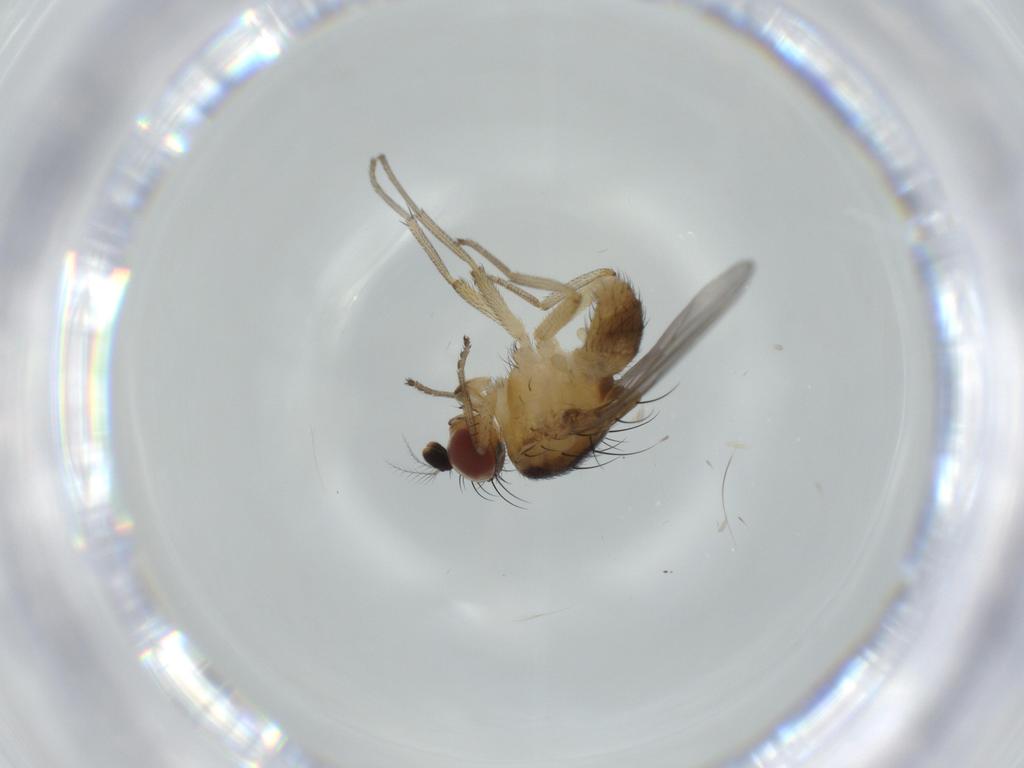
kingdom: Animalia
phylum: Arthropoda
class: Insecta
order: Diptera
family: Lauxaniidae
